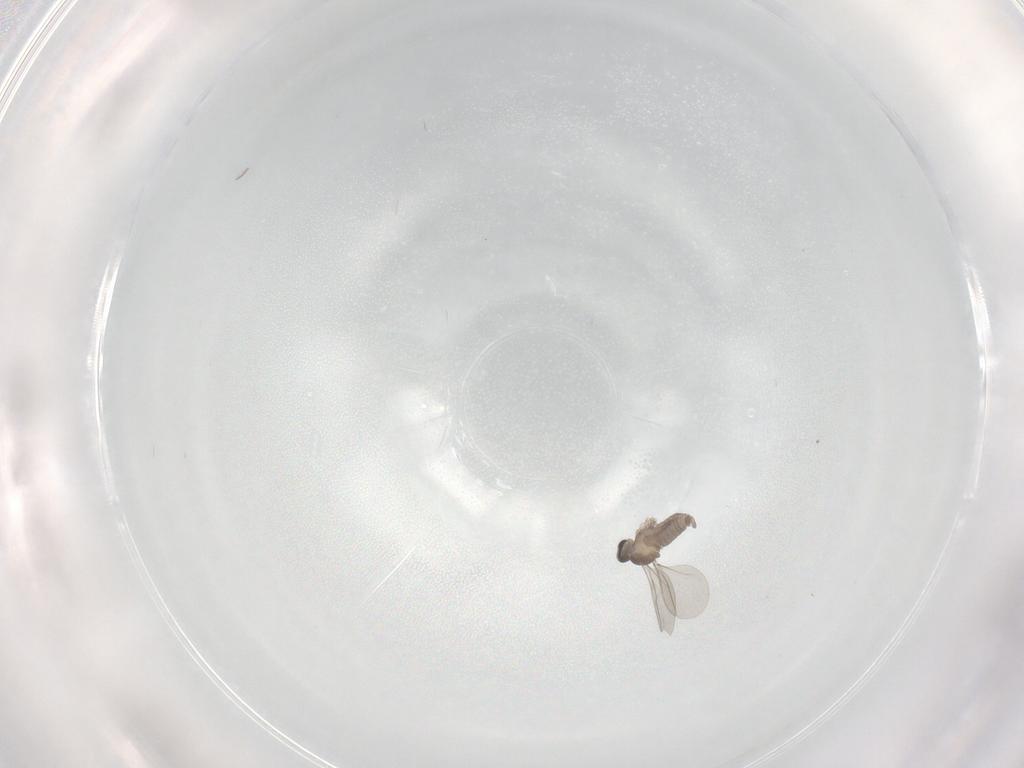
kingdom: Animalia
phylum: Arthropoda
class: Insecta
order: Diptera
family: Cecidomyiidae
